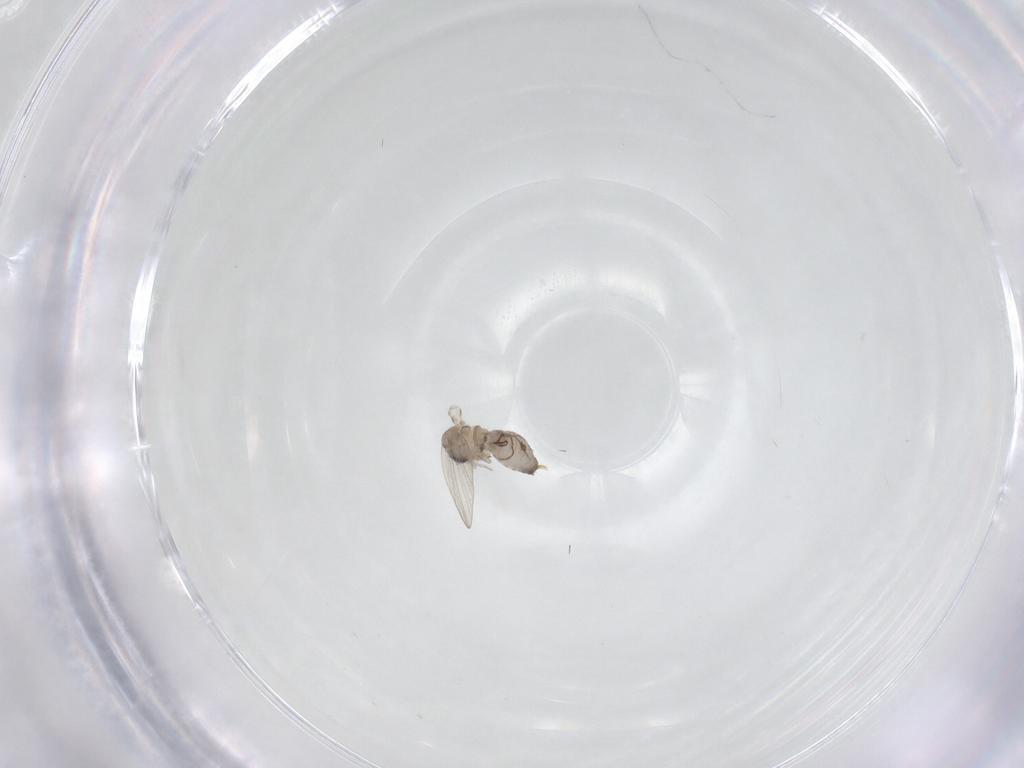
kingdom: Animalia
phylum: Arthropoda
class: Insecta
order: Diptera
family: Psychodidae
